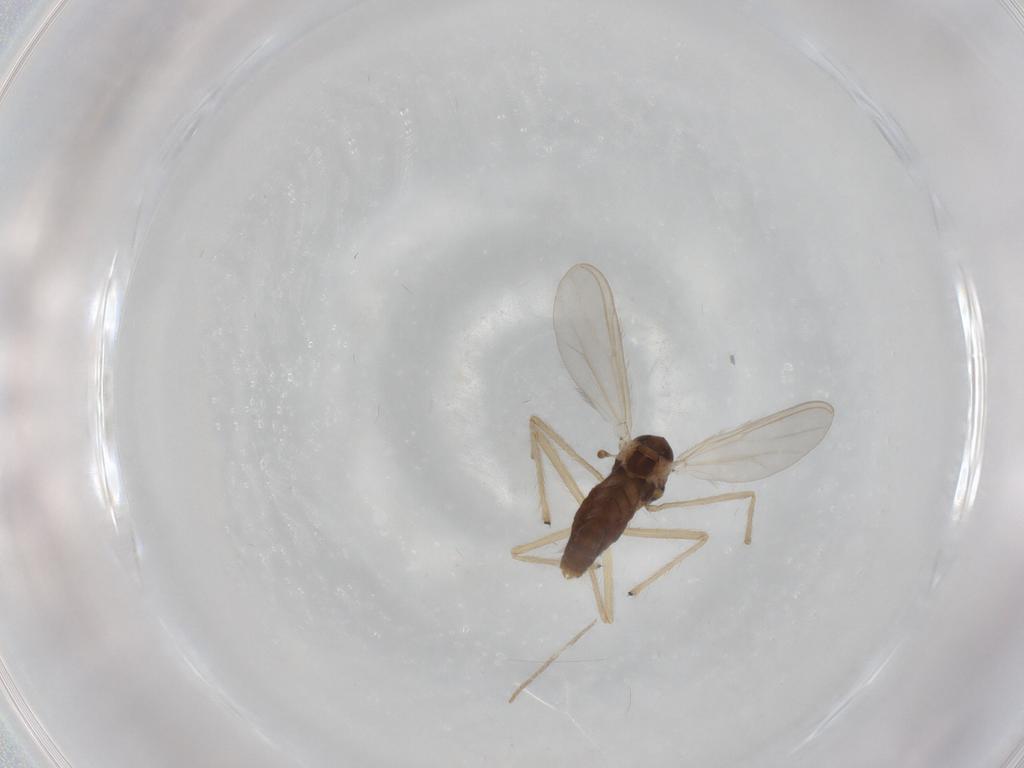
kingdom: Animalia
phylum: Arthropoda
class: Insecta
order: Diptera
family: Chironomidae
